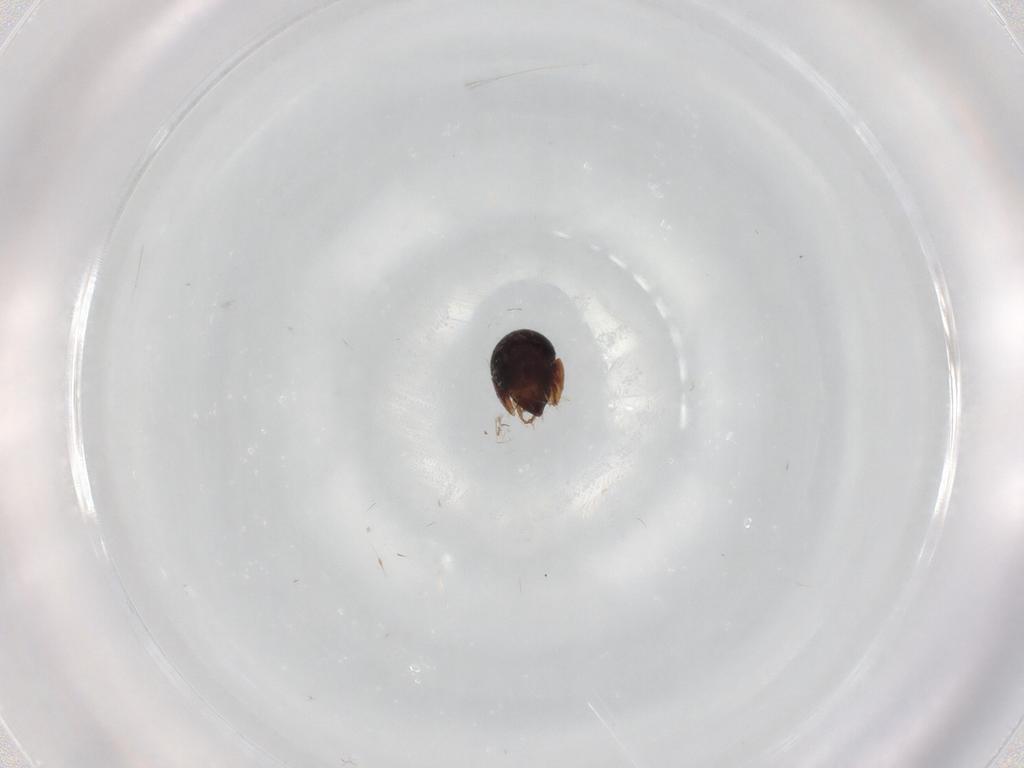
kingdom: Animalia
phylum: Arthropoda
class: Arachnida
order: Sarcoptiformes
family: Ceratozetidae
